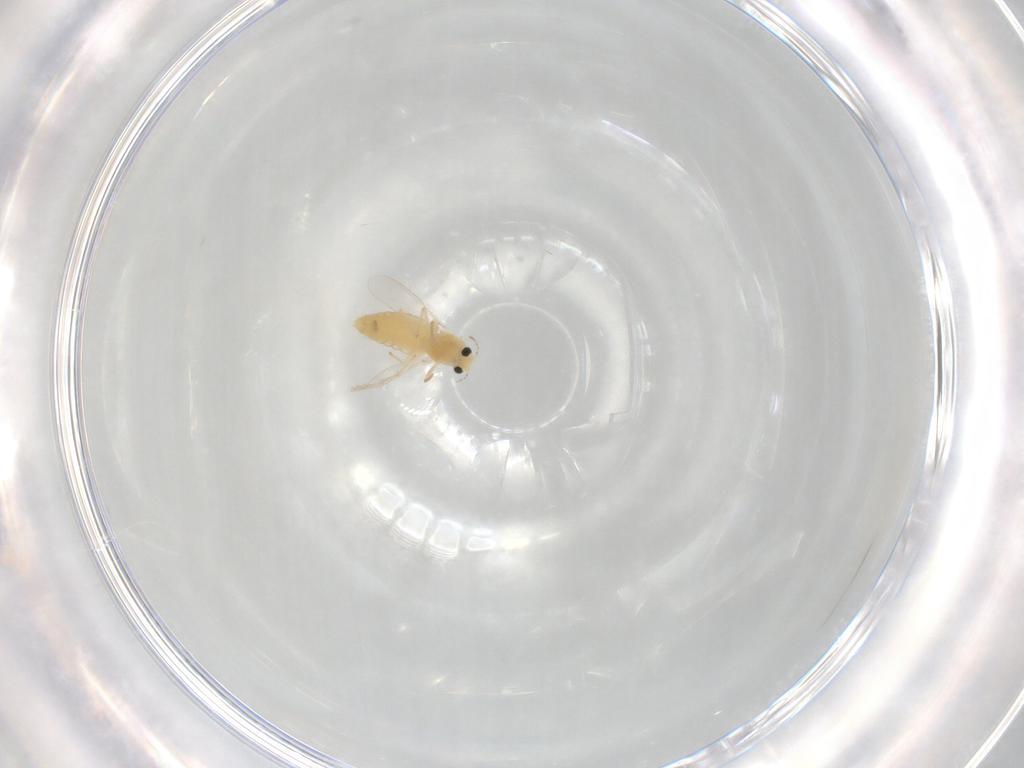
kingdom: Animalia
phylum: Arthropoda
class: Insecta
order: Diptera
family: Chironomidae
